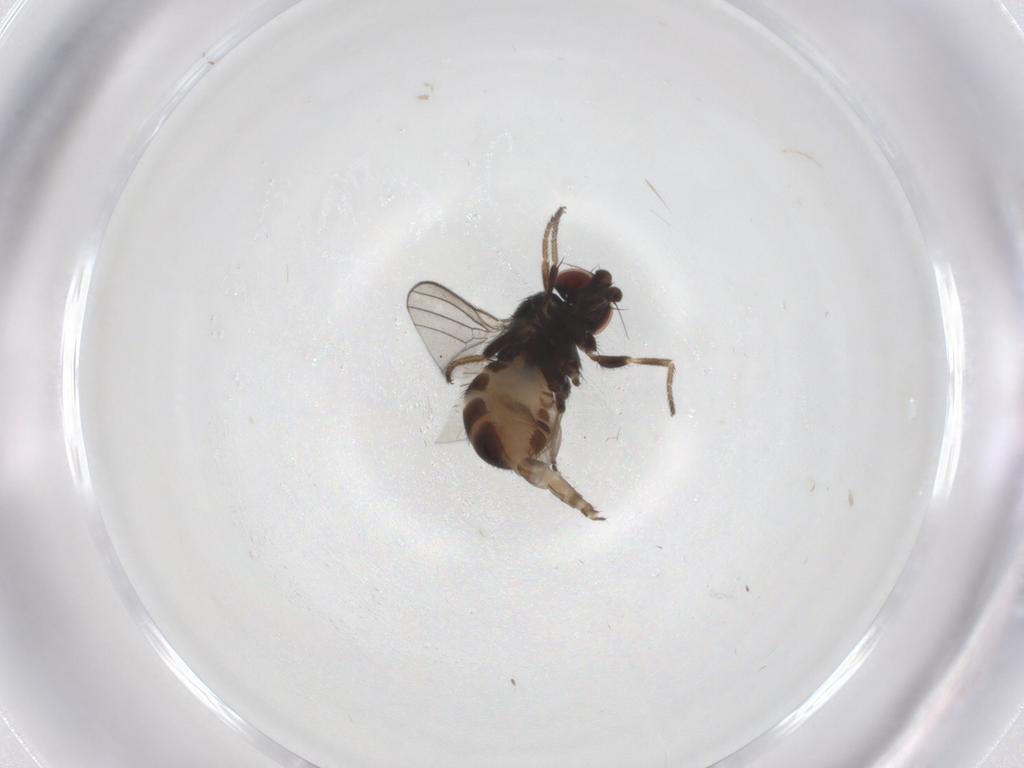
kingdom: Animalia
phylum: Arthropoda
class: Insecta
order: Diptera
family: Milichiidae
